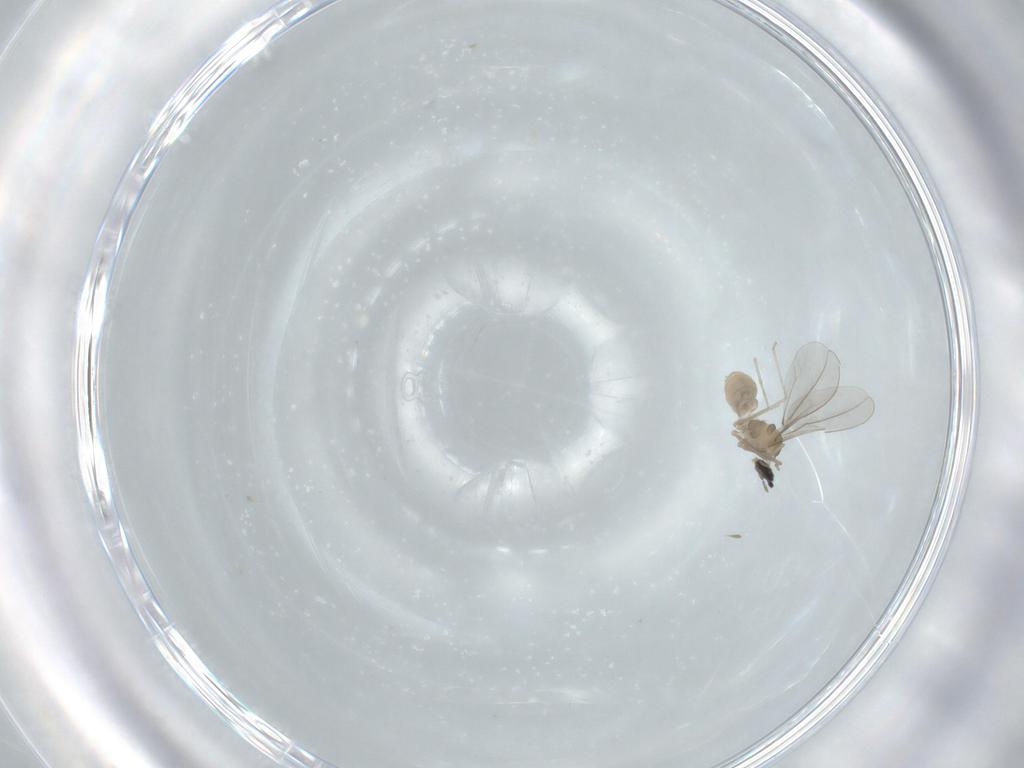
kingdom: Animalia
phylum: Arthropoda
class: Insecta
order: Diptera
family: Cecidomyiidae
